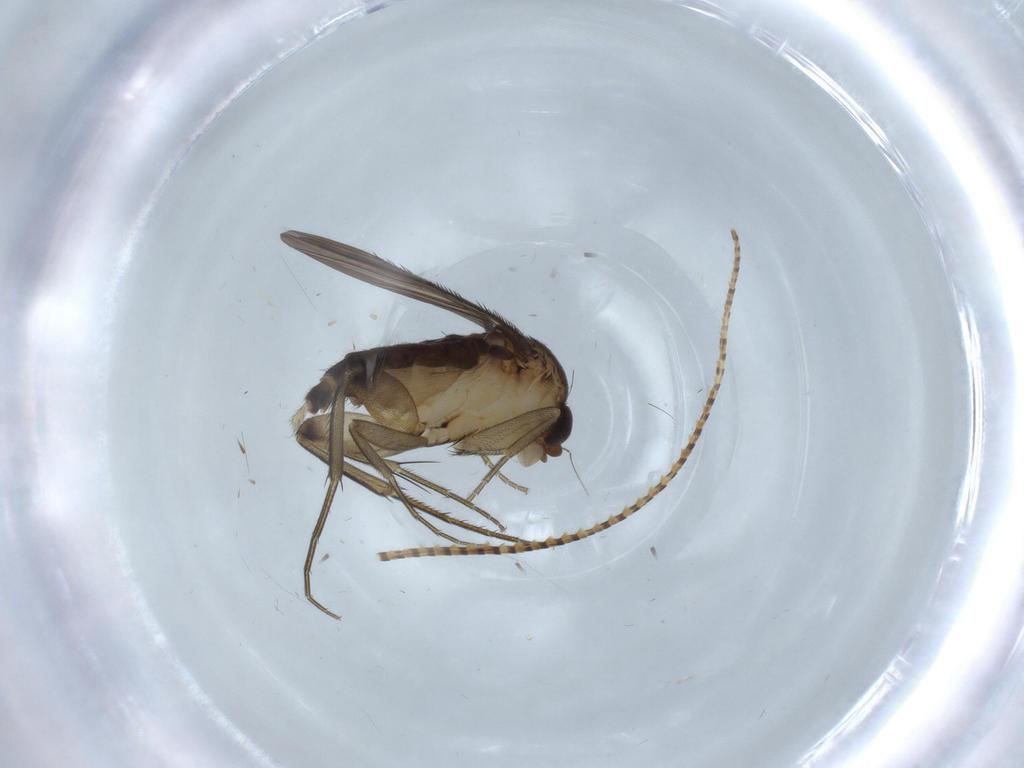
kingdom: Animalia
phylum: Arthropoda
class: Insecta
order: Diptera
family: Phoridae
